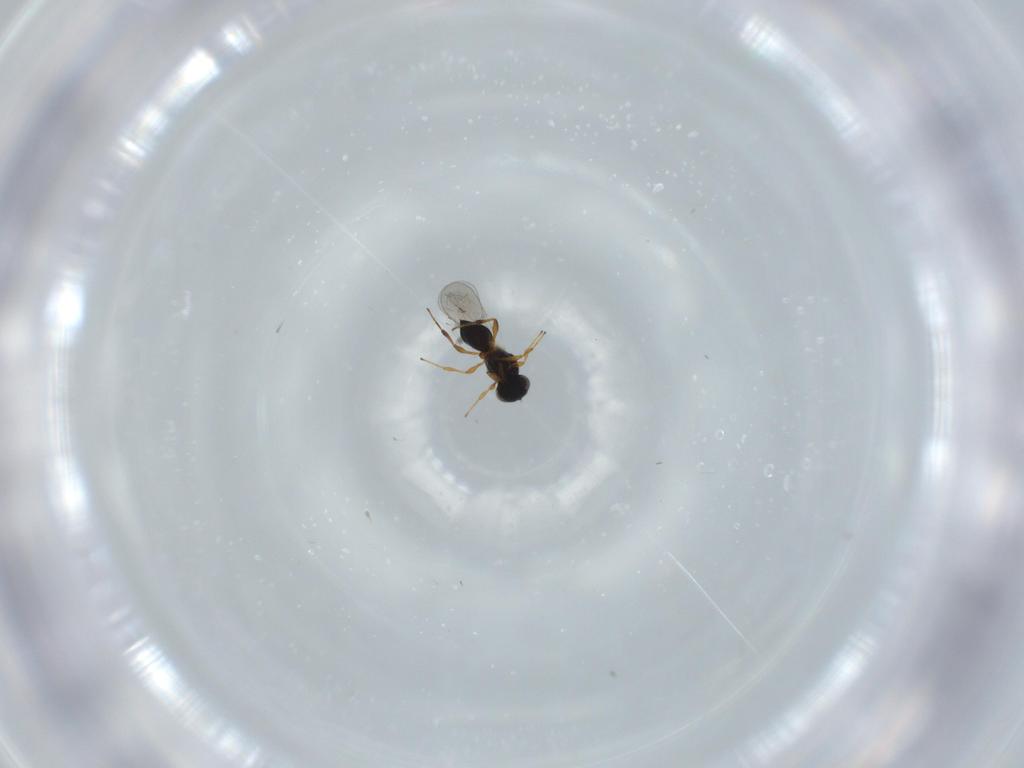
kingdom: Animalia
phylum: Arthropoda
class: Insecta
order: Hymenoptera
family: Platygastridae
